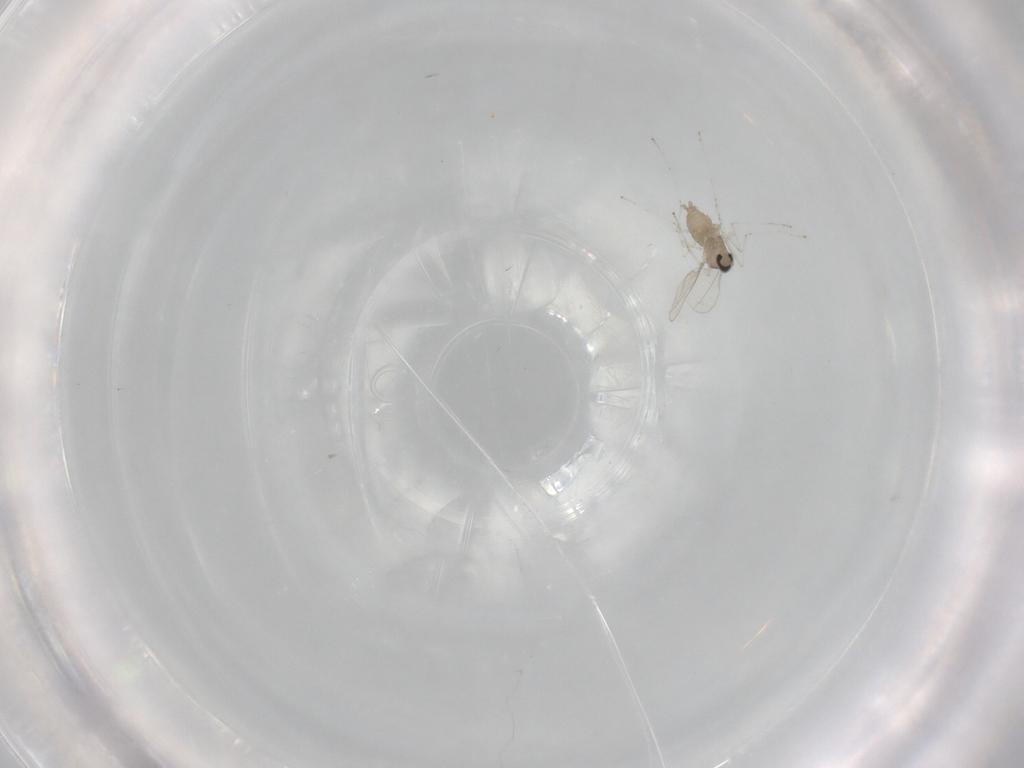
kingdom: Animalia
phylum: Arthropoda
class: Insecta
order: Diptera
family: Cecidomyiidae
